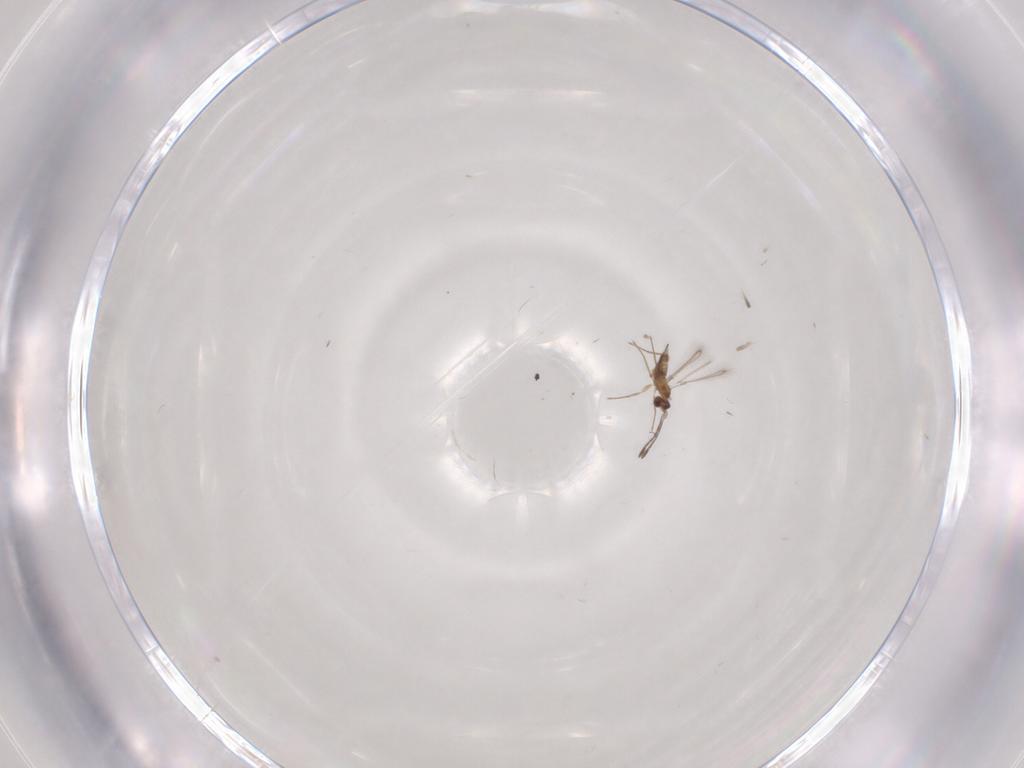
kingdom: Animalia
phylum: Arthropoda
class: Insecta
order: Hymenoptera
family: Mymaridae
